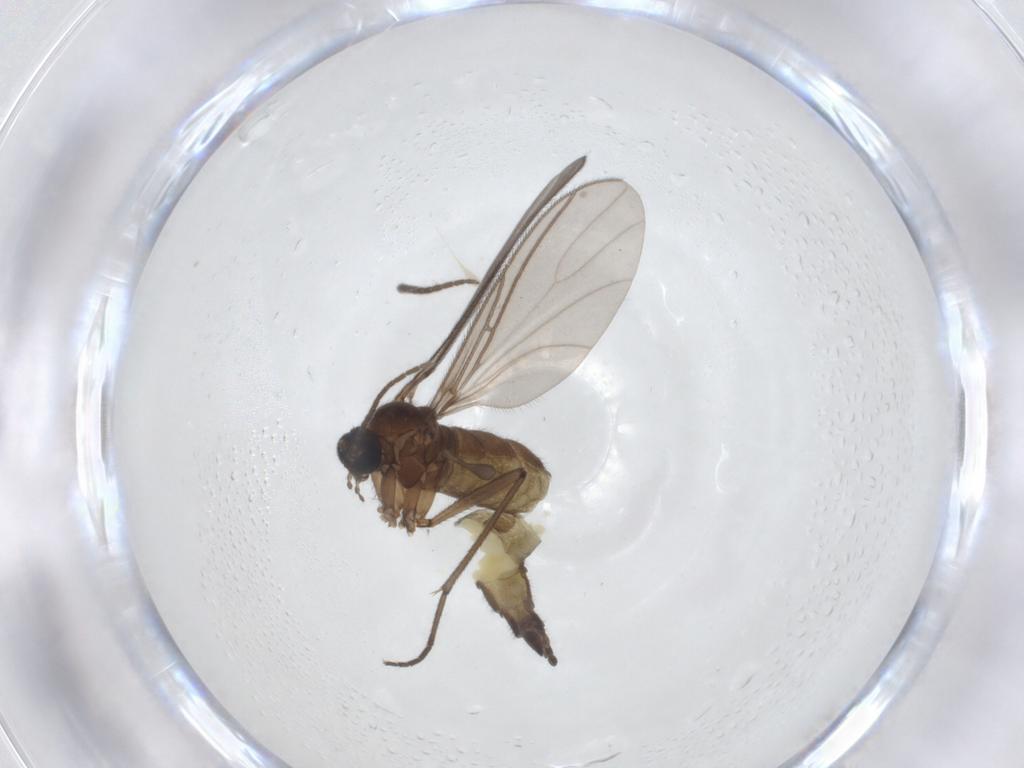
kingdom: Animalia
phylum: Arthropoda
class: Insecta
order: Diptera
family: Sciaridae
